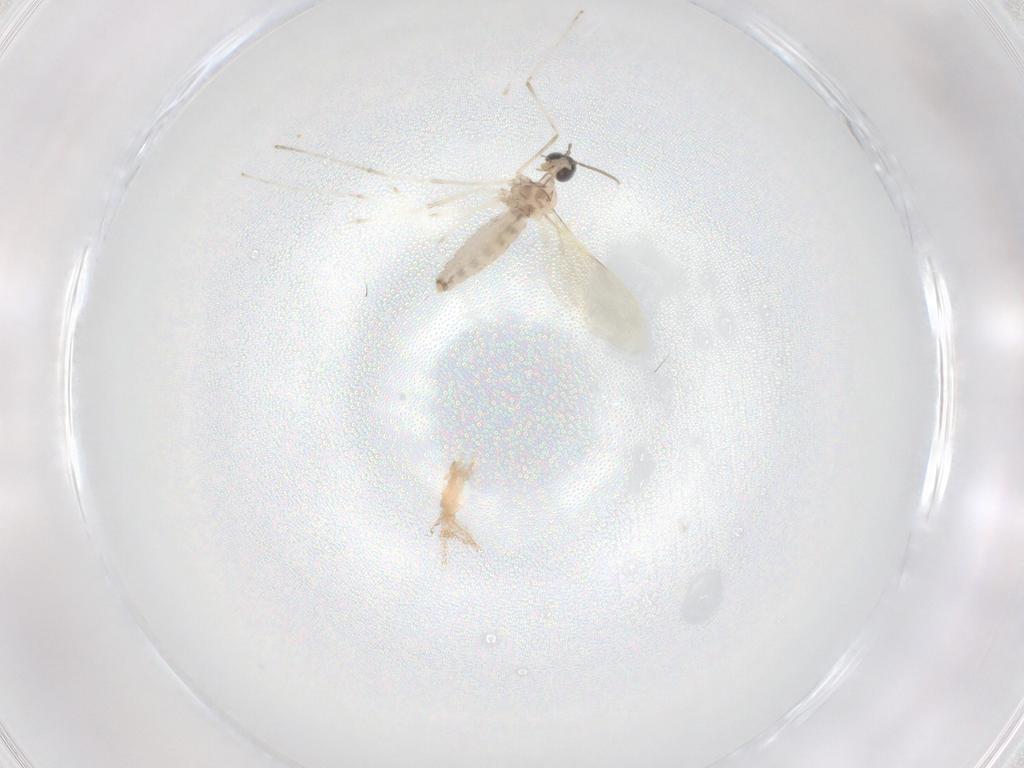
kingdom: Animalia
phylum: Arthropoda
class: Insecta
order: Diptera
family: Cecidomyiidae
